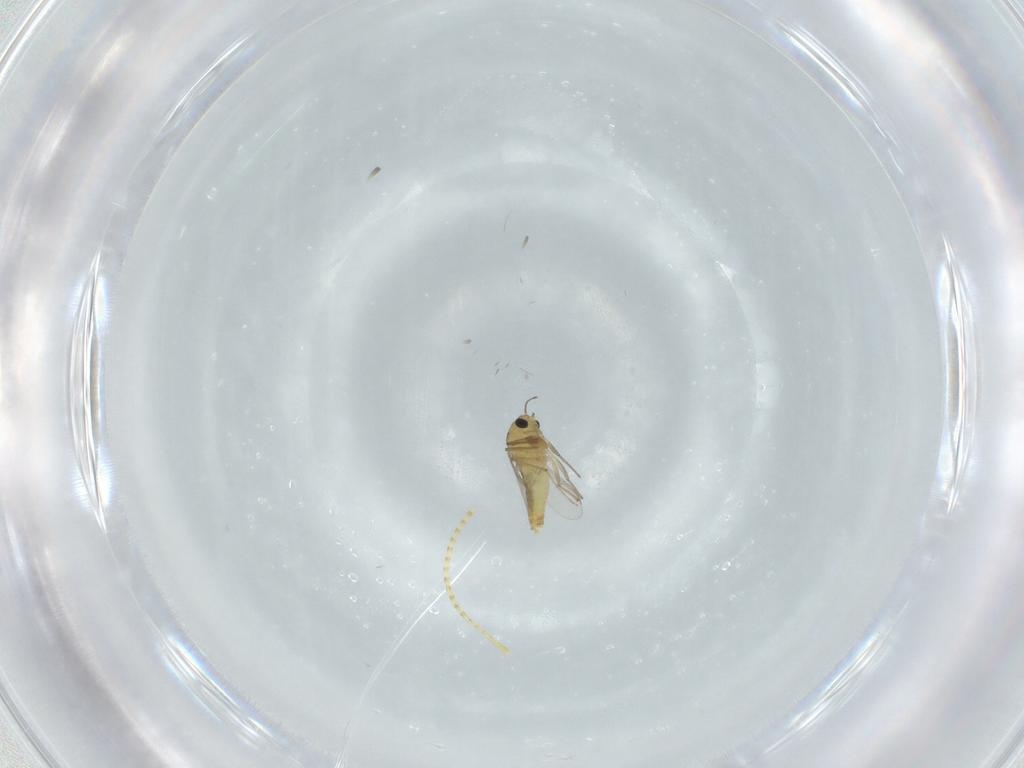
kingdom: Animalia
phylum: Arthropoda
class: Insecta
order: Diptera
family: Chironomidae
